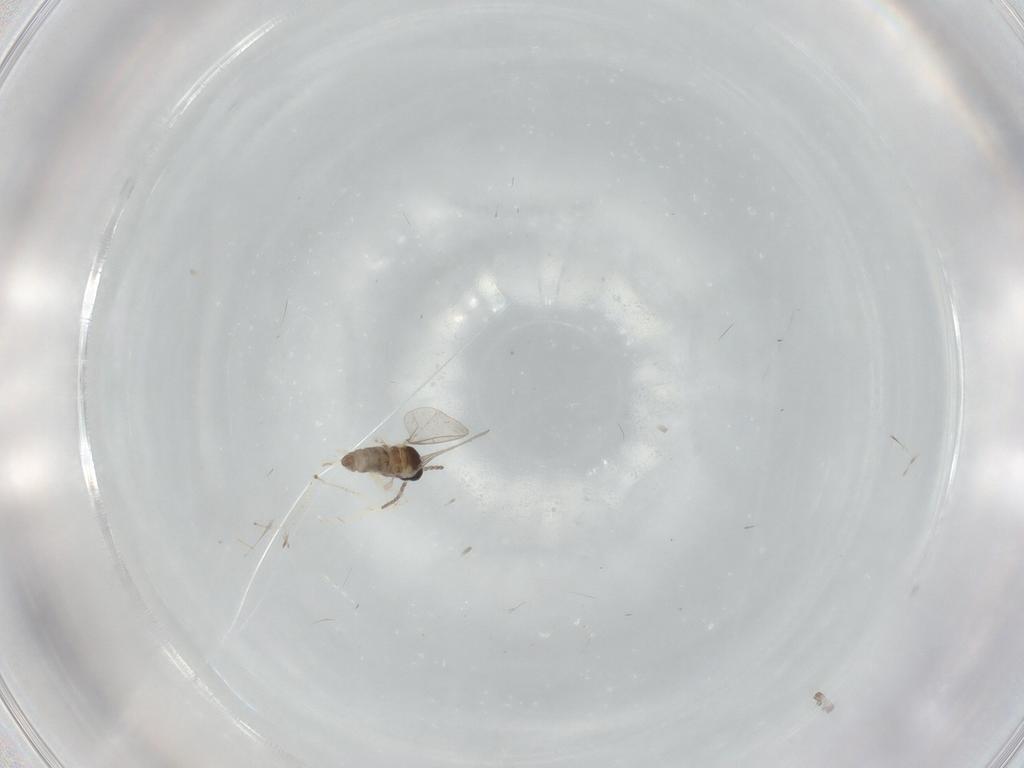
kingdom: Animalia
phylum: Arthropoda
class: Insecta
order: Diptera
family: Cecidomyiidae
